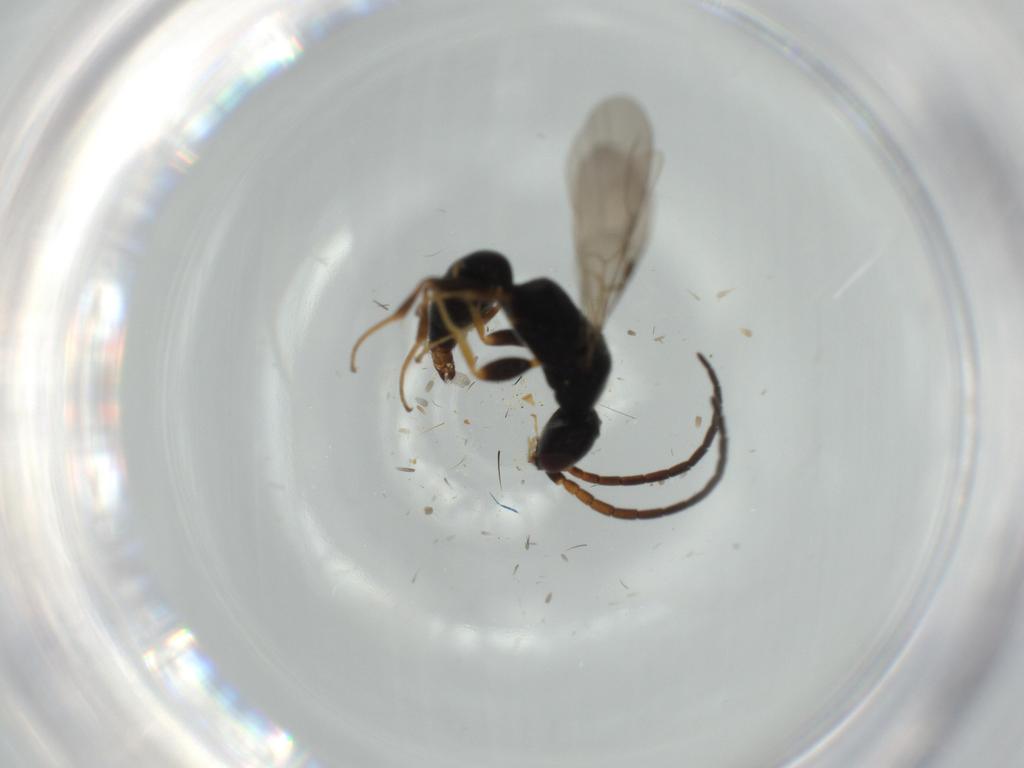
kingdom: Animalia
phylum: Arthropoda
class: Insecta
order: Hymenoptera
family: Bethylidae
